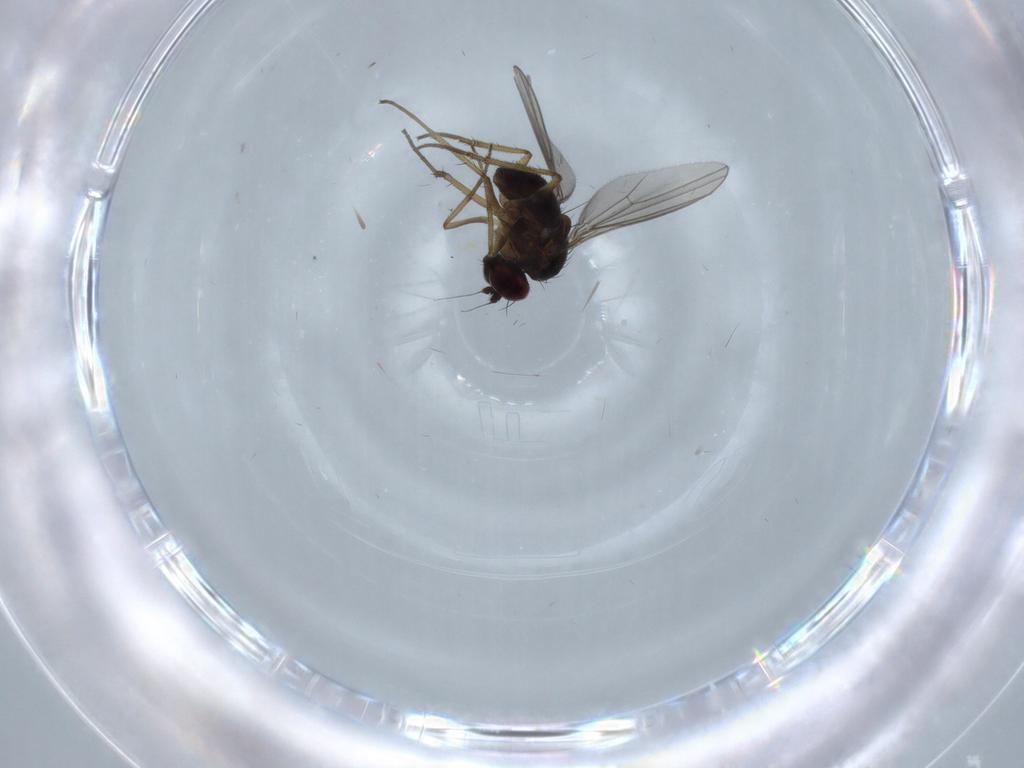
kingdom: Animalia
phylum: Arthropoda
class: Insecta
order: Diptera
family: Dolichopodidae
